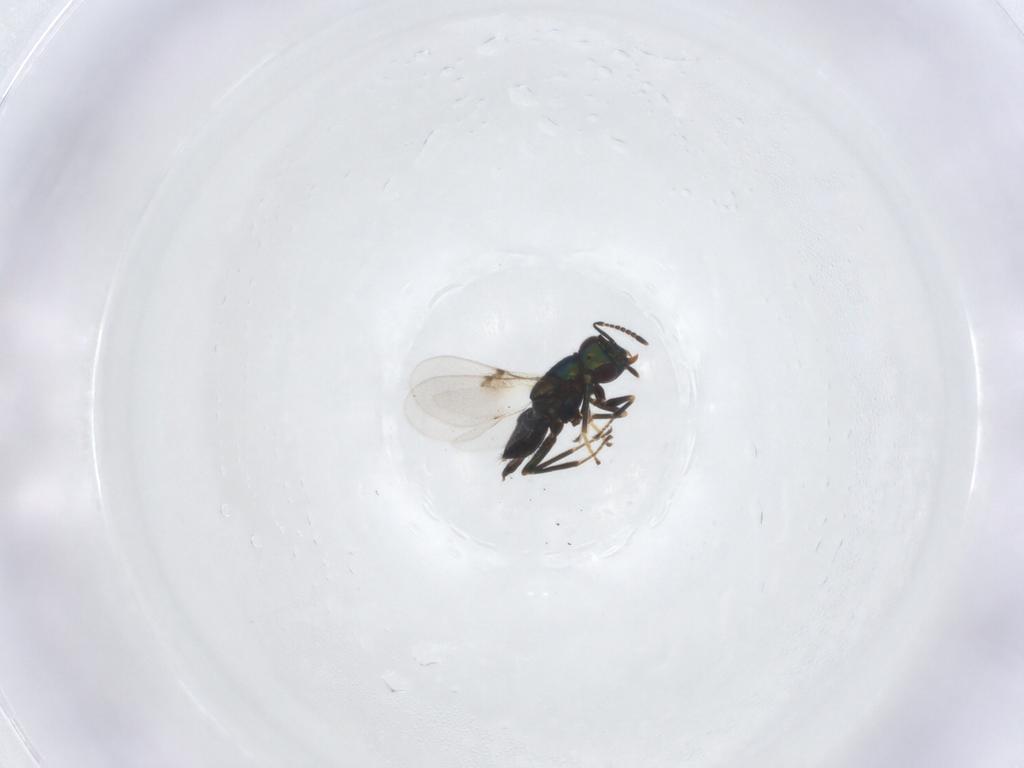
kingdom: Animalia
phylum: Arthropoda
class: Insecta
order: Hymenoptera
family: Encyrtidae
